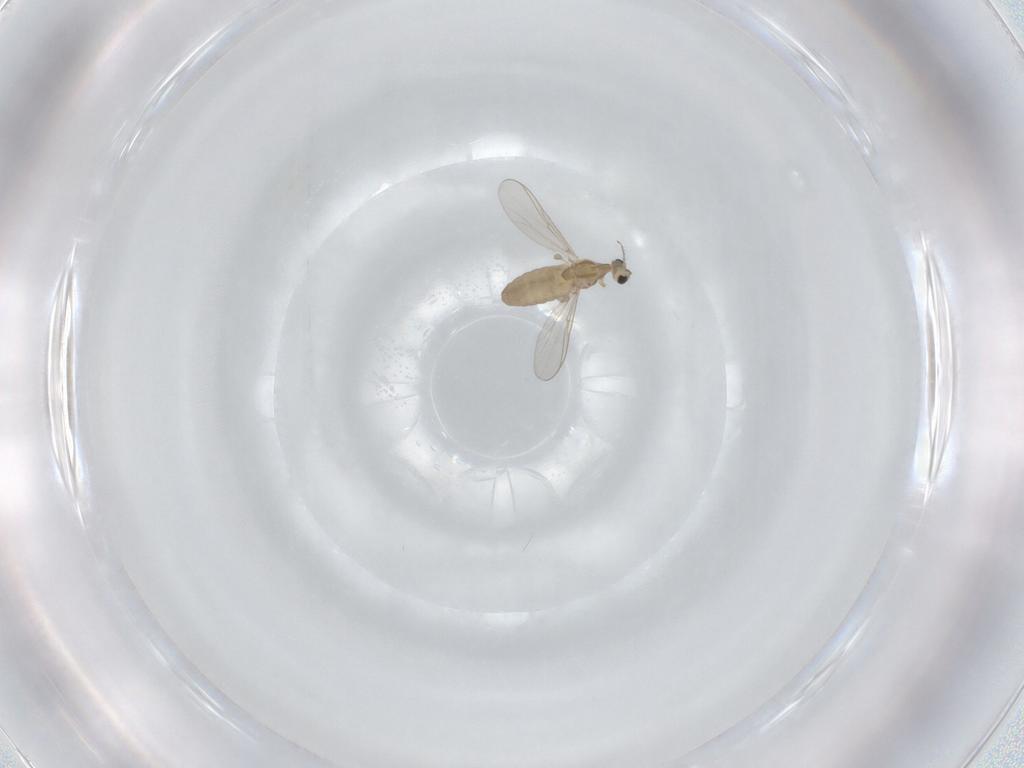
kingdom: Animalia
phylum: Arthropoda
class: Insecta
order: Diptera
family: Chironomidae
